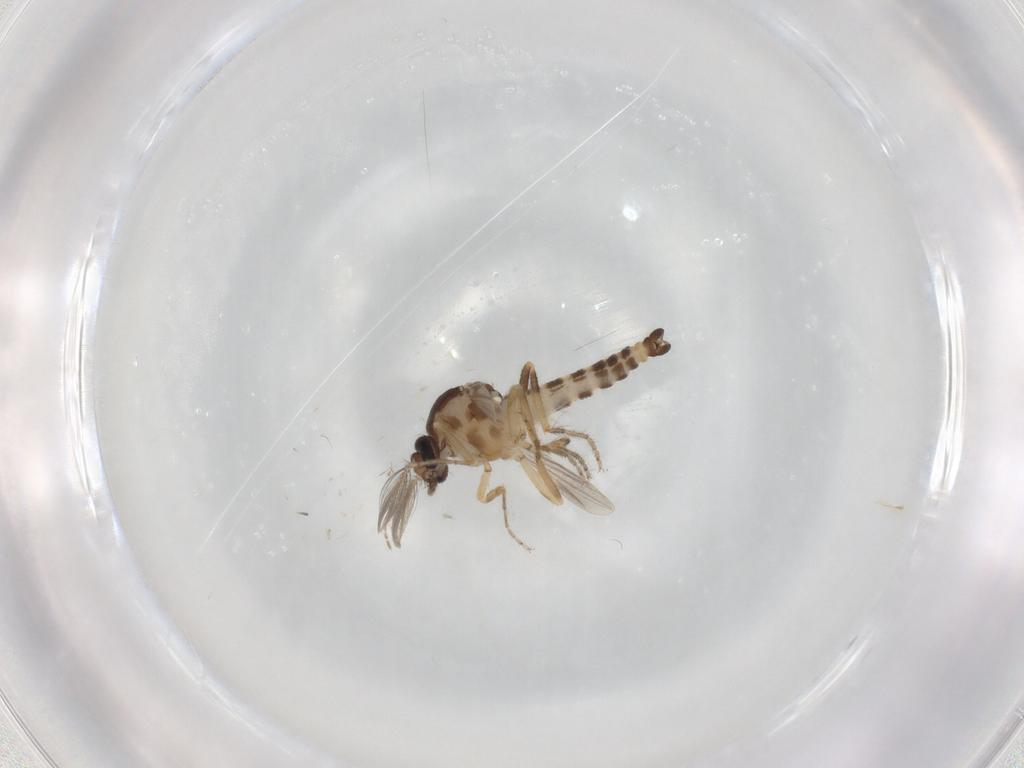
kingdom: Animalia
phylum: Arthropoda
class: Insecta
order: Diptera
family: Ceratopogonidae
